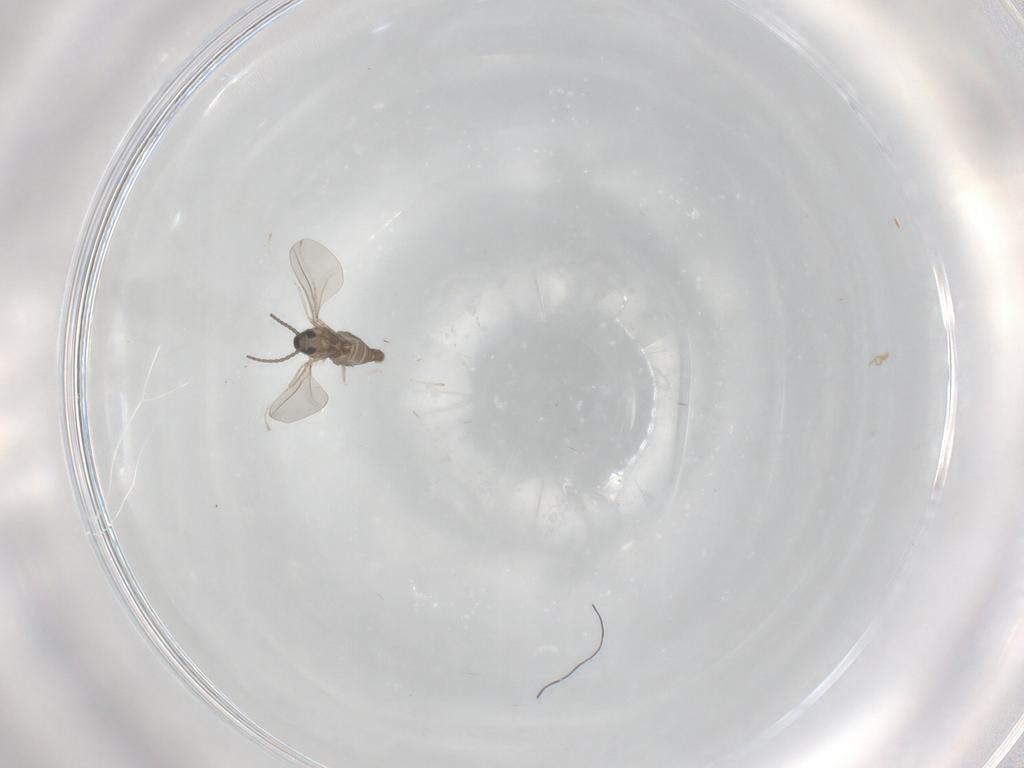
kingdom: Animalia
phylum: Arthropoda
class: Insecta
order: Diptera
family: Cecidomyiidae
